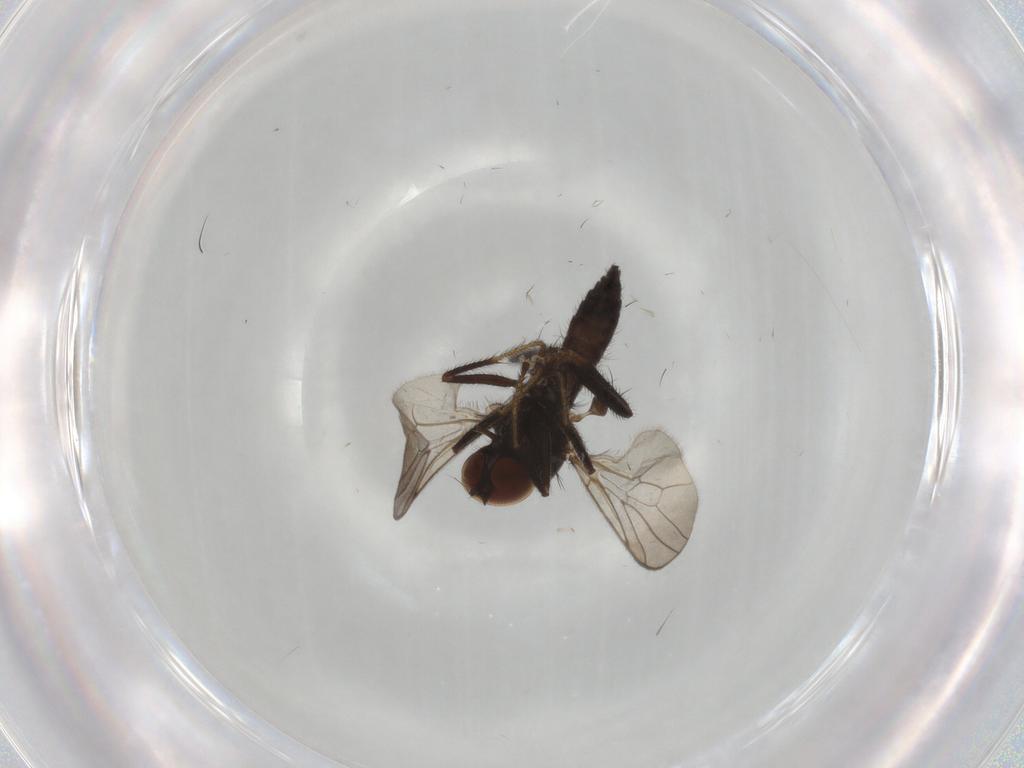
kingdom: Animalia
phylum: Arthropoda
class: Insecta
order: Diptera
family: Hybotidae
